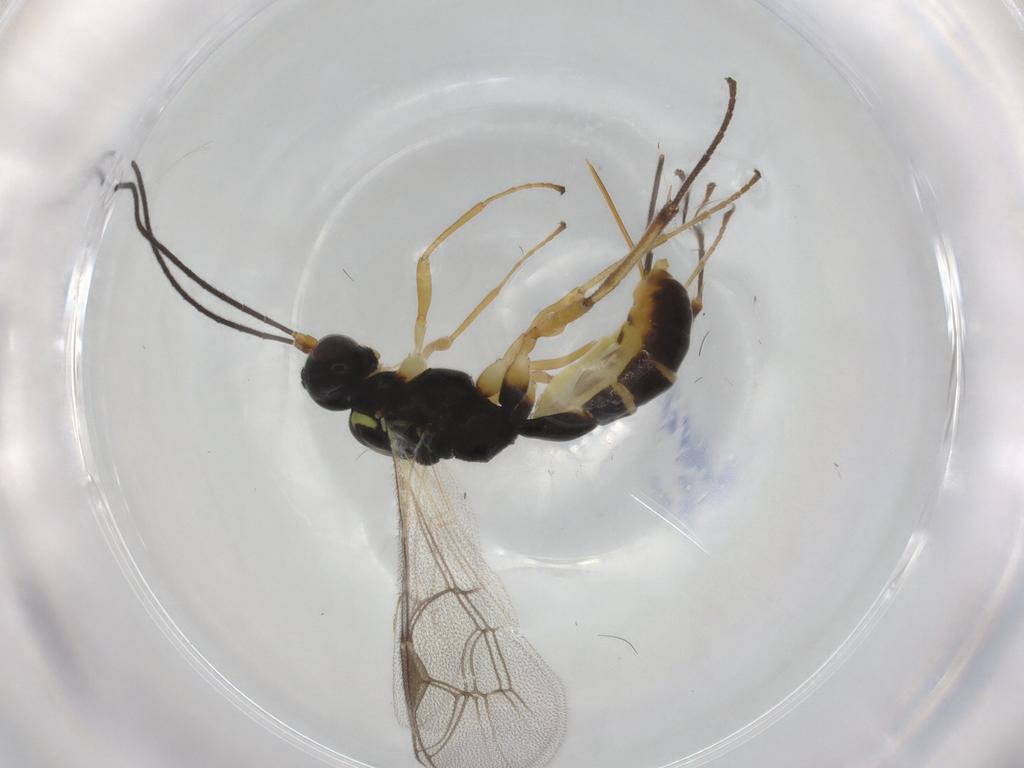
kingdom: Animalia
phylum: Arthropoda
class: Insecta
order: Hymenoptera
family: Ichneumonidae
